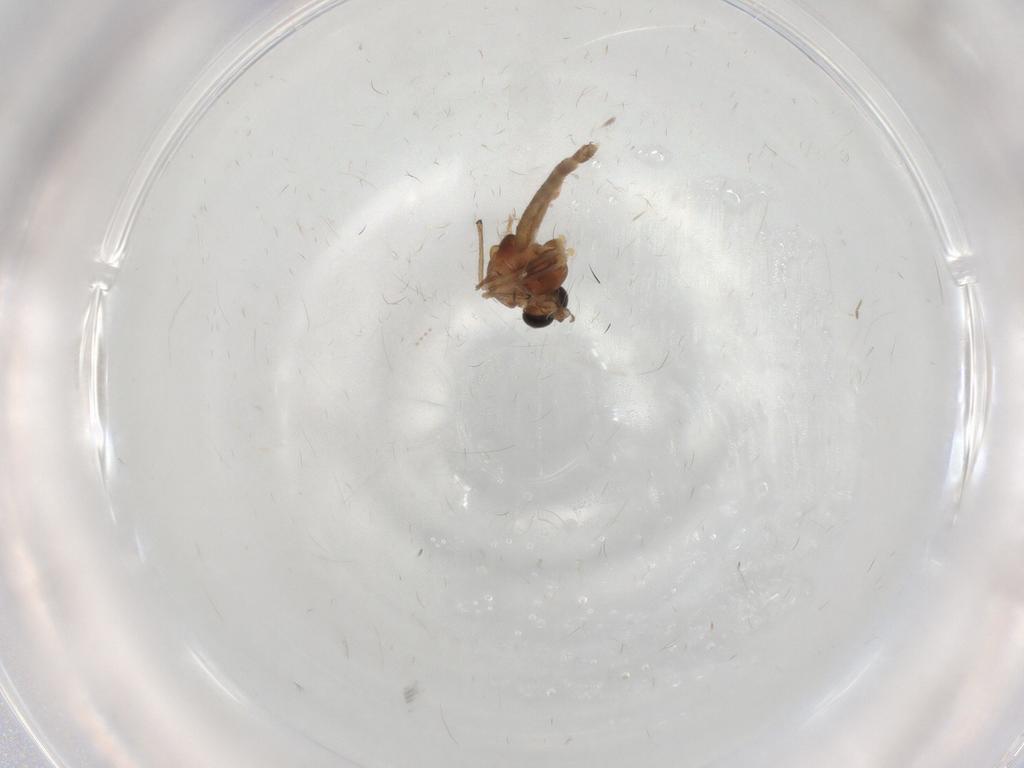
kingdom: Animalia
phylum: Arthropoda
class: Insecta
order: Diptera
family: Chironomidae
